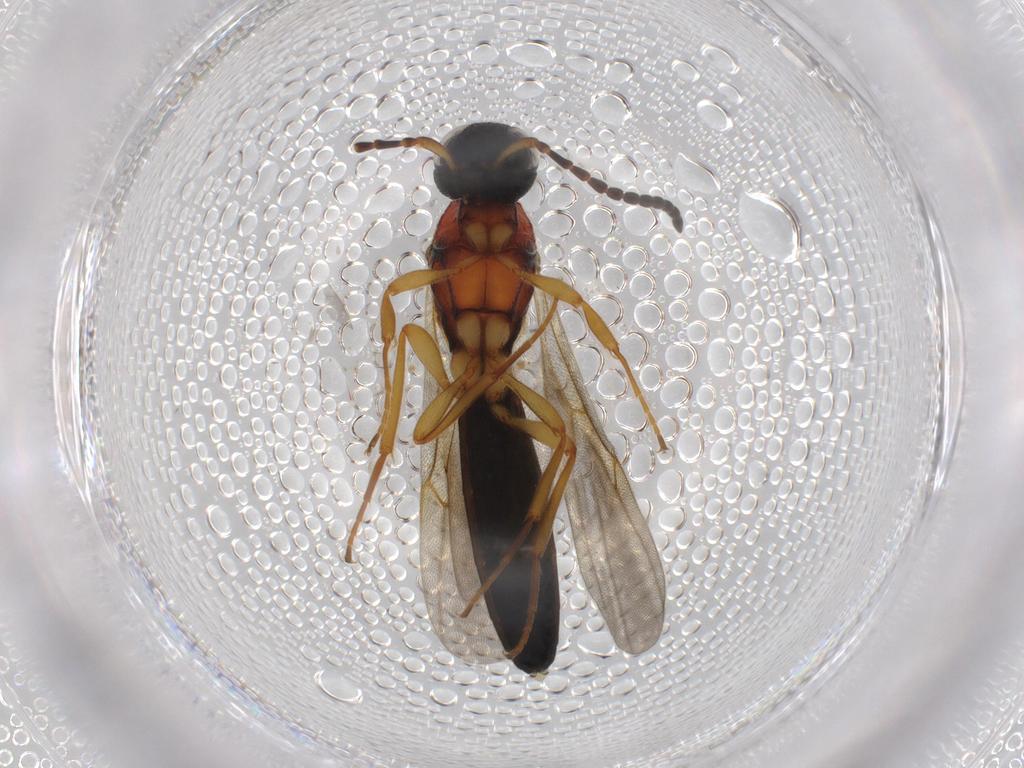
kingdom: Animalia
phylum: Arthropoda
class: Insecta
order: Hymenoptera
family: Scelionidae
